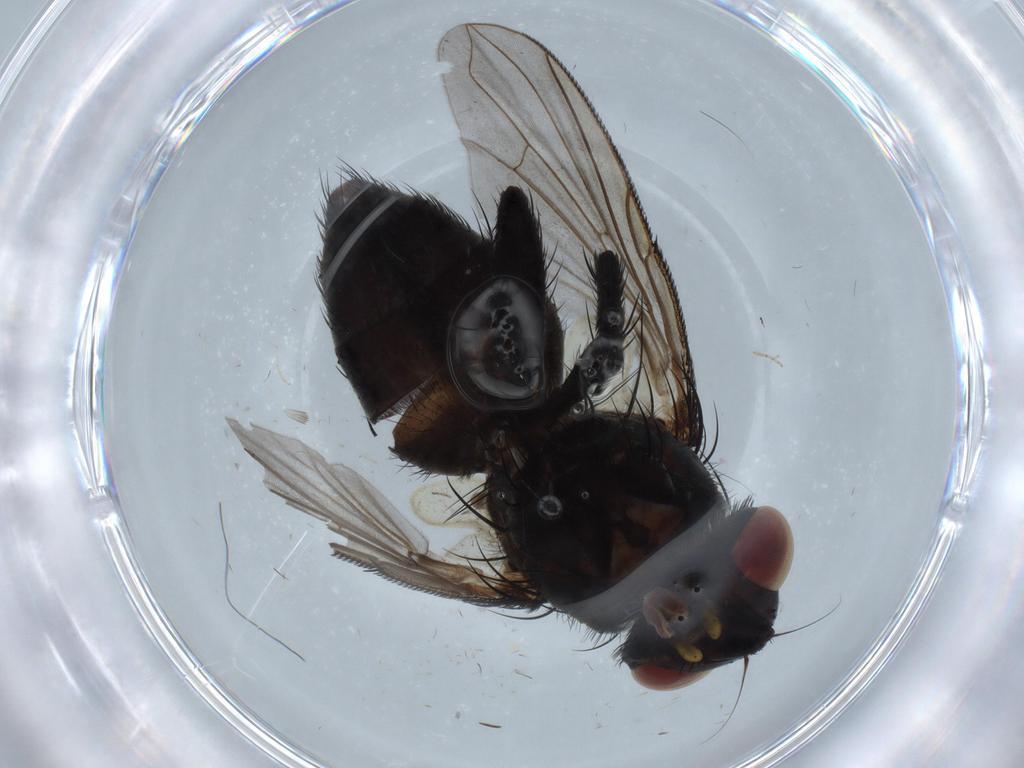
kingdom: Animalia
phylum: Arthropoda
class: Insecta
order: Diptera
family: Tachinidae
